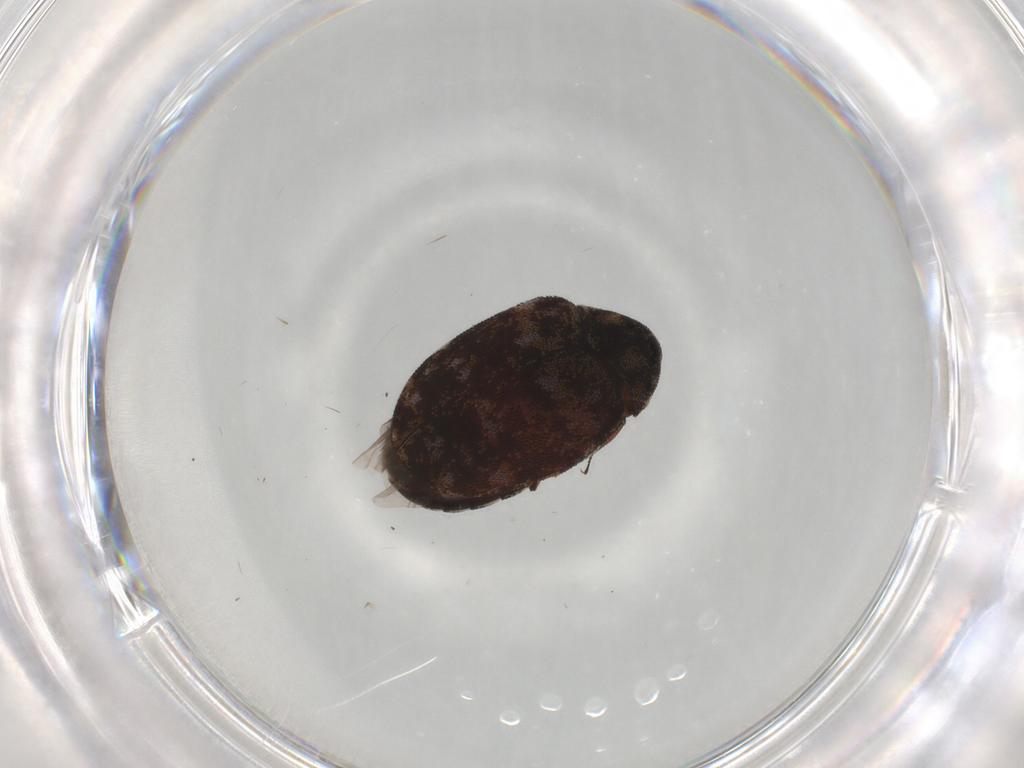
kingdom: Animalia
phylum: Arthropoda
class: Insecta
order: Coleoptera
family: Dermestidae
